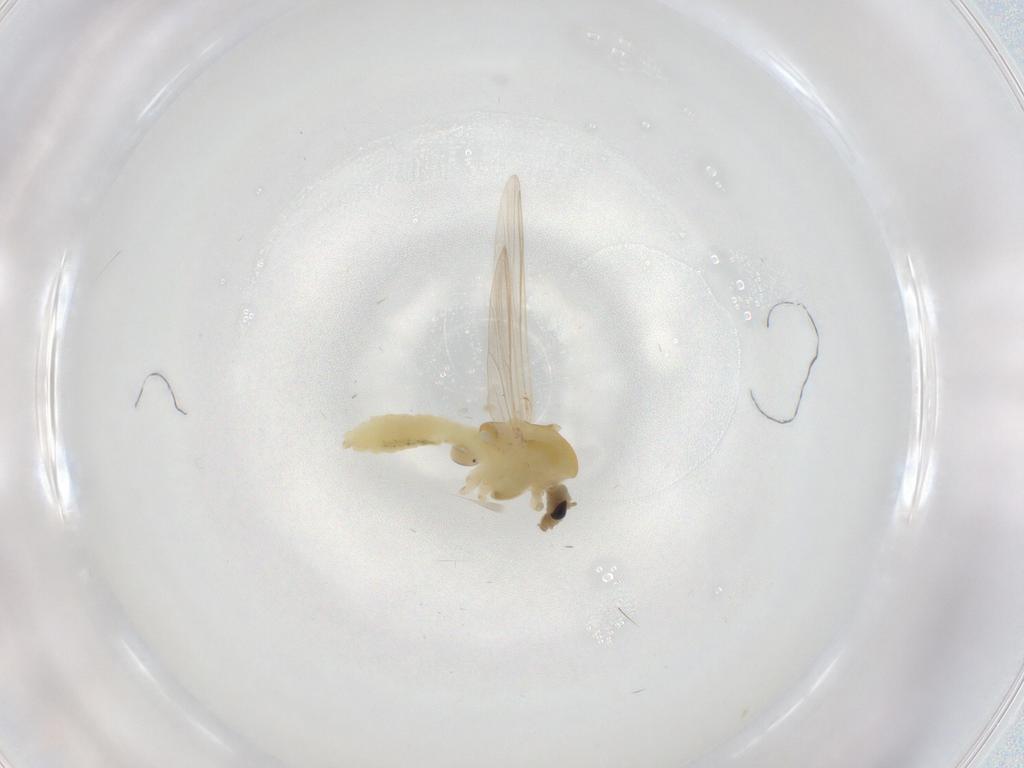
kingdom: Animalia
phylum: Arthropoda
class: Insecta
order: Diptera
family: Cecidomyiidae
